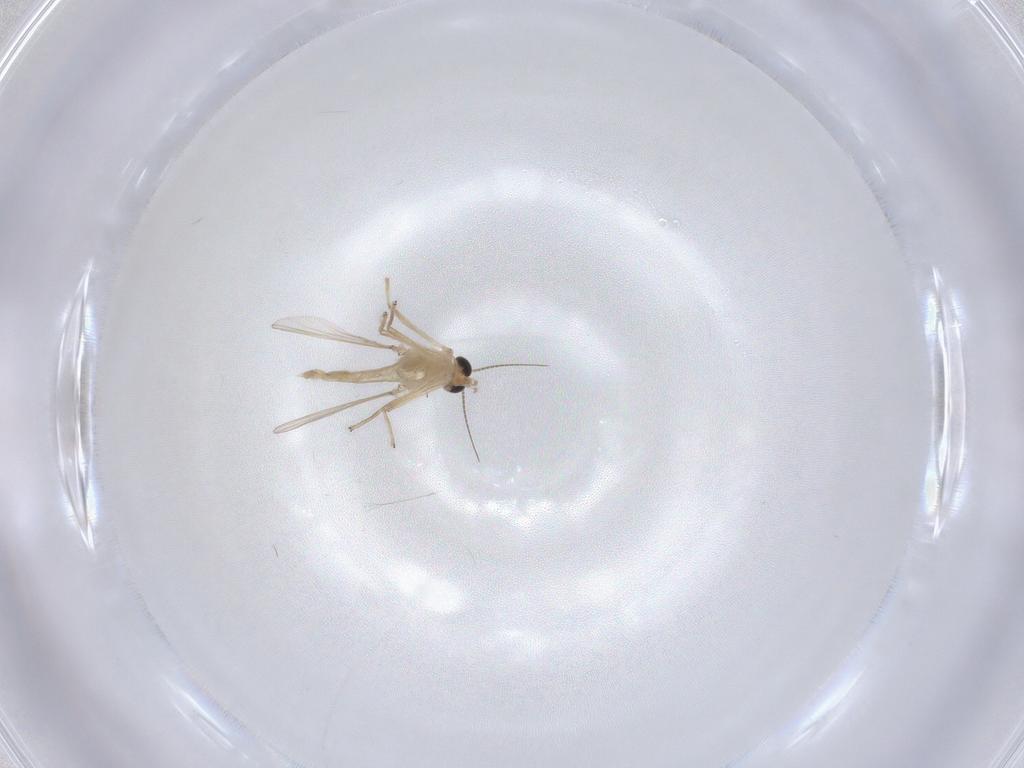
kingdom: Animalia
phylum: Arthropoda
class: Insecta
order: Diptera
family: Chironomidae
